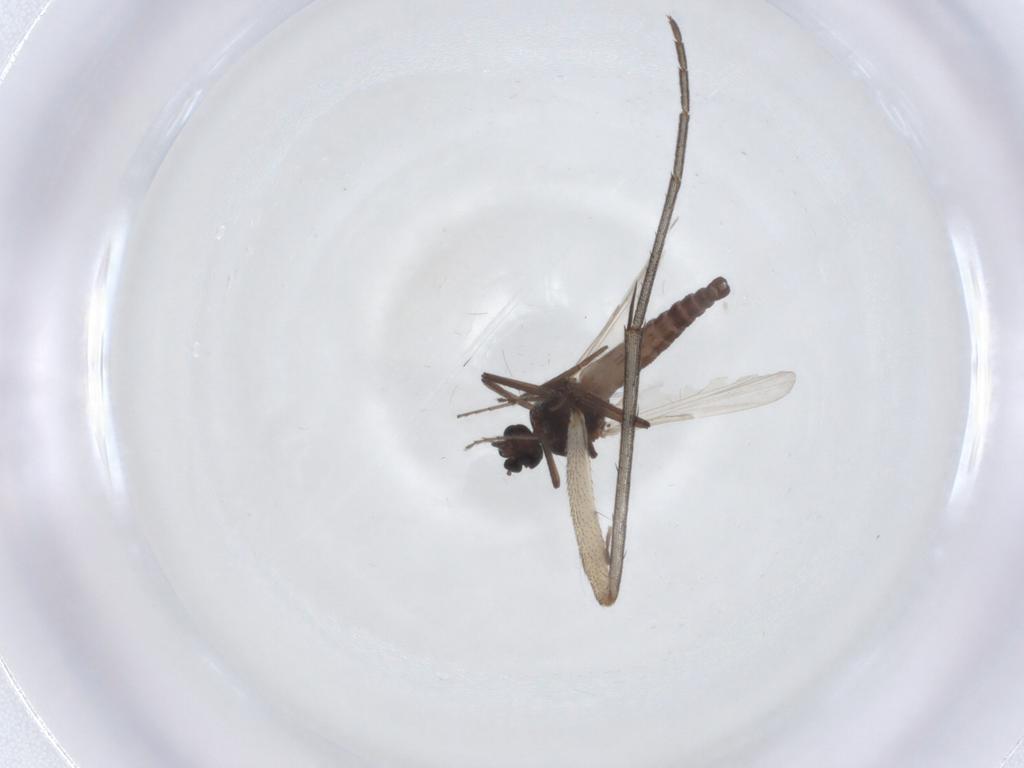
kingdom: Animalia
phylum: Arthropoda
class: Insecta
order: Diptera
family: Ceratopogonidae
